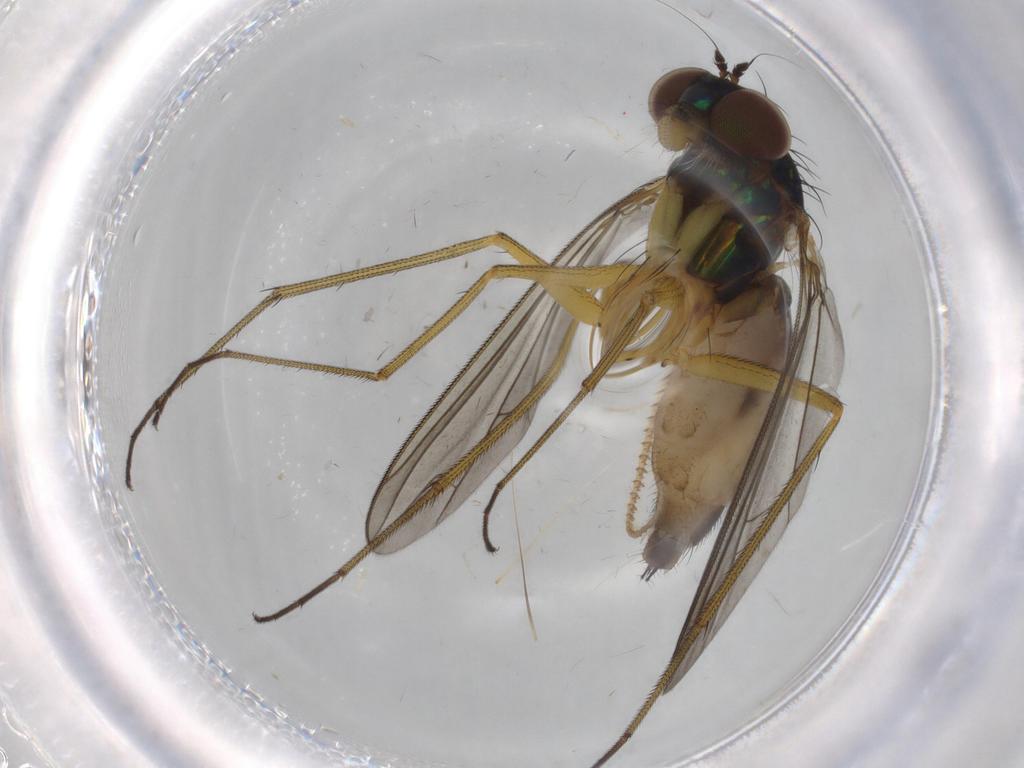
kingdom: Animalia
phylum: Arthropoda
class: Insecta
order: Diptera
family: Dolichopodidae
